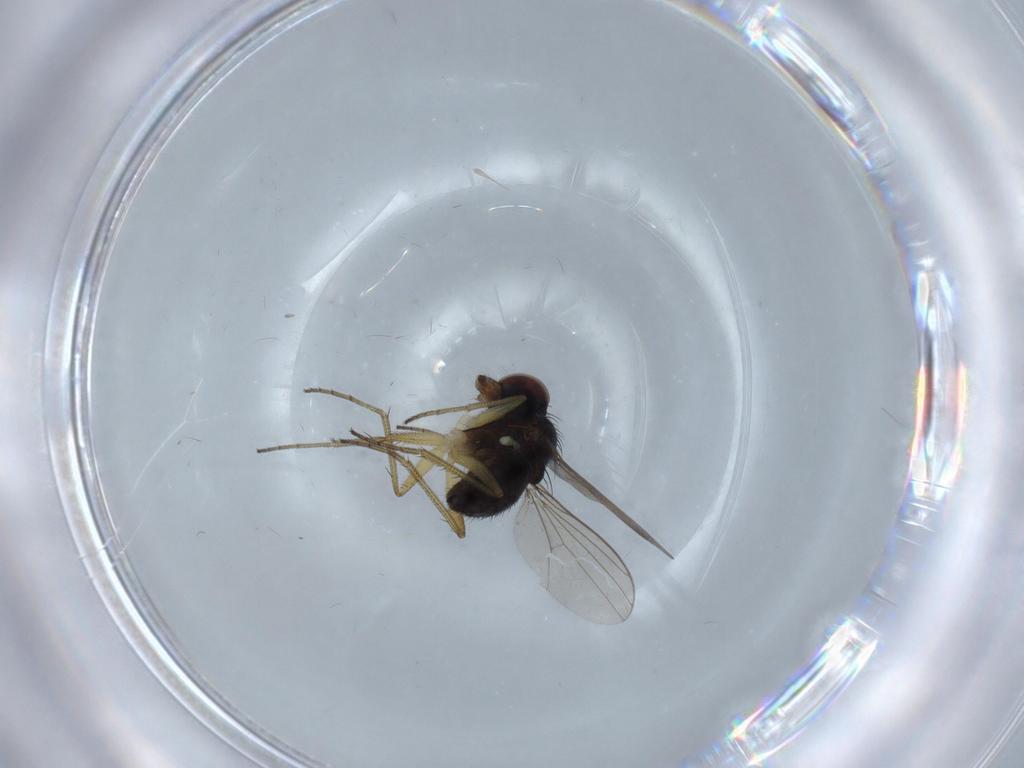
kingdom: Animalia
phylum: Arthropoda
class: Insecta
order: Diptera
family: Dolichopodidae
